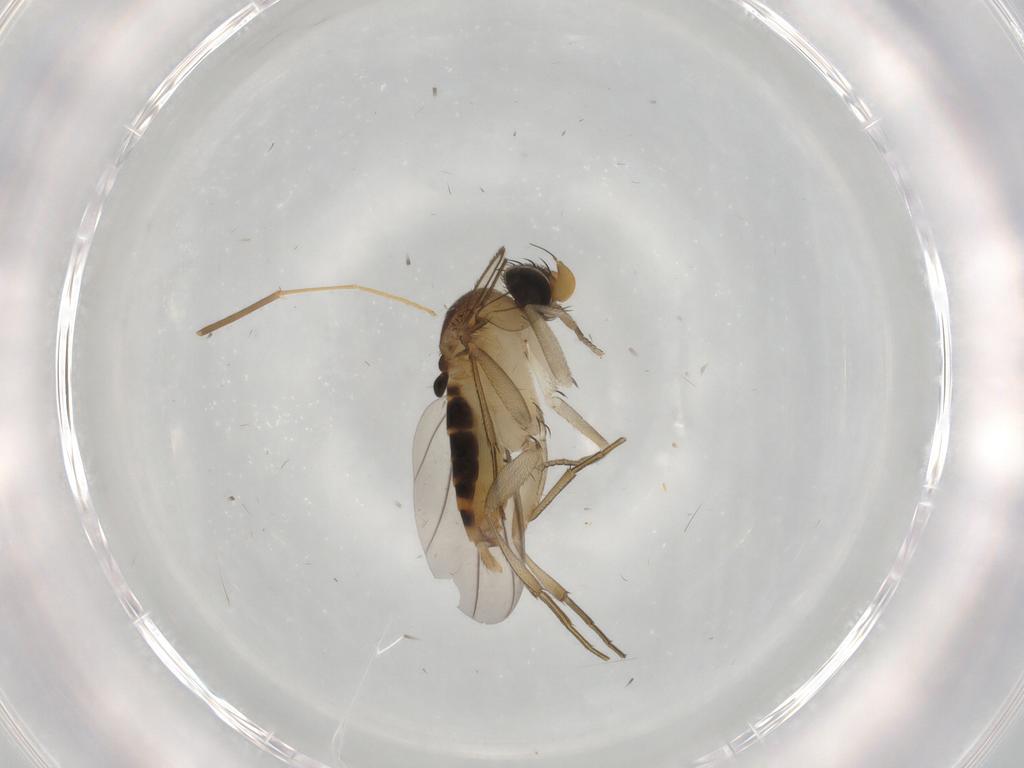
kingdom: Animalia
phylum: Arthropoda
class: Insecta
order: Diptera
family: Phoridae
